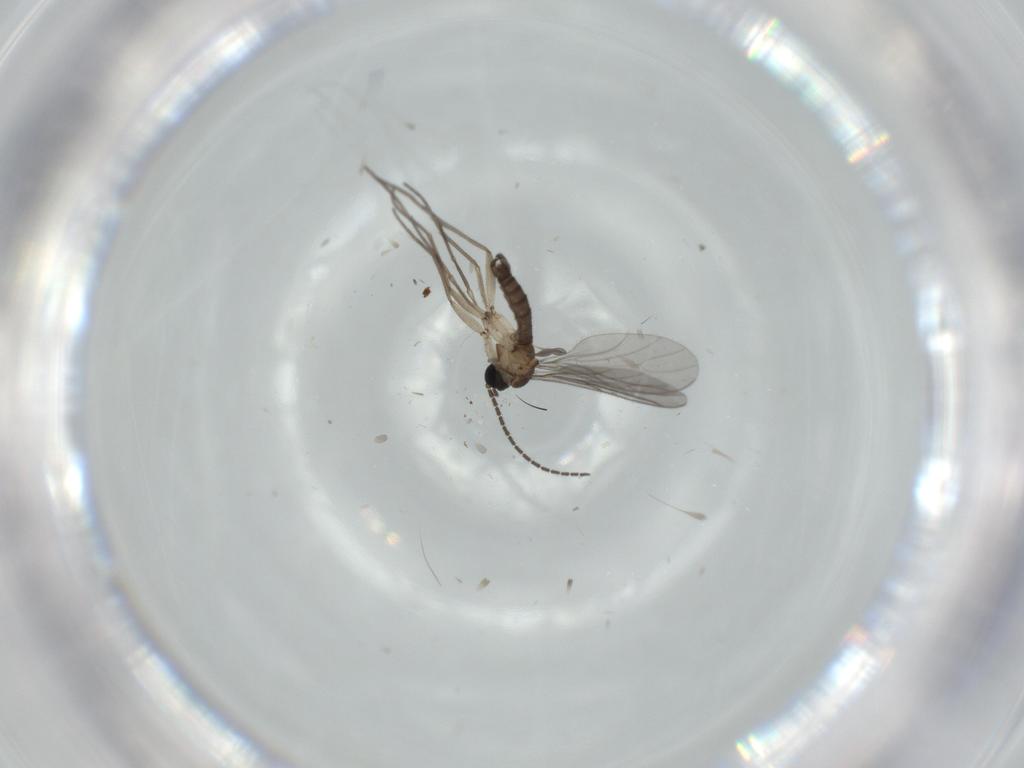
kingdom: Animalia
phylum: Arthropoda
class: Insecta
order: Diptera
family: Sciaridae
